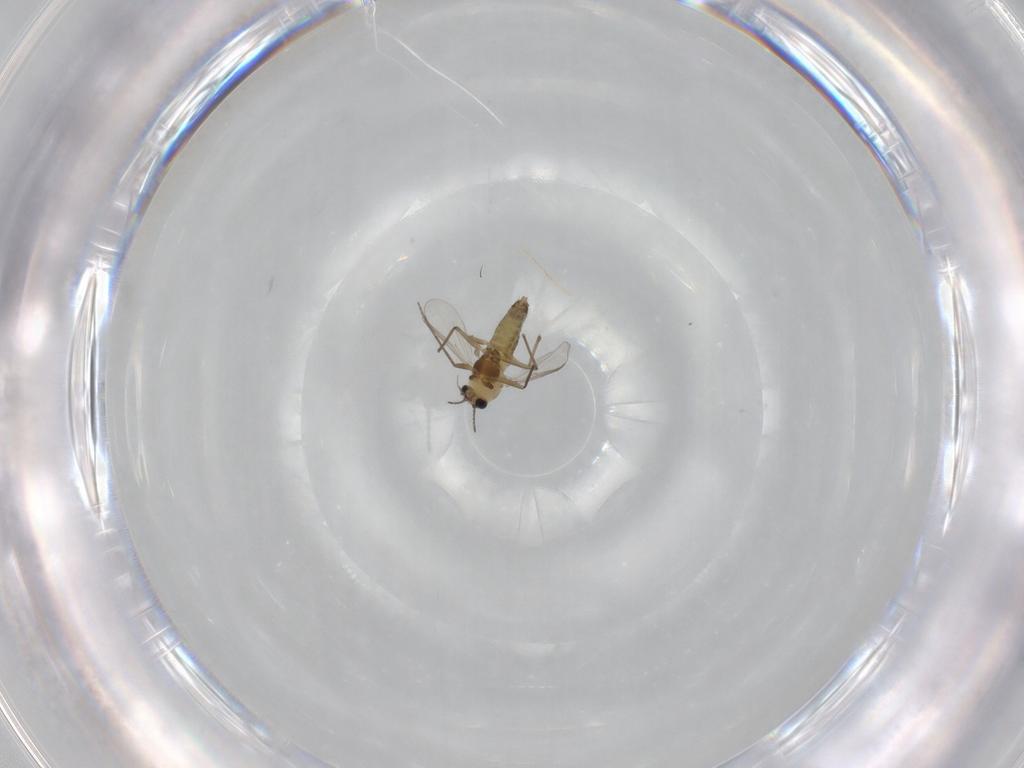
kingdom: Animalia
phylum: Arthropoda
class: Insecta
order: Diptera
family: Chironomidae
